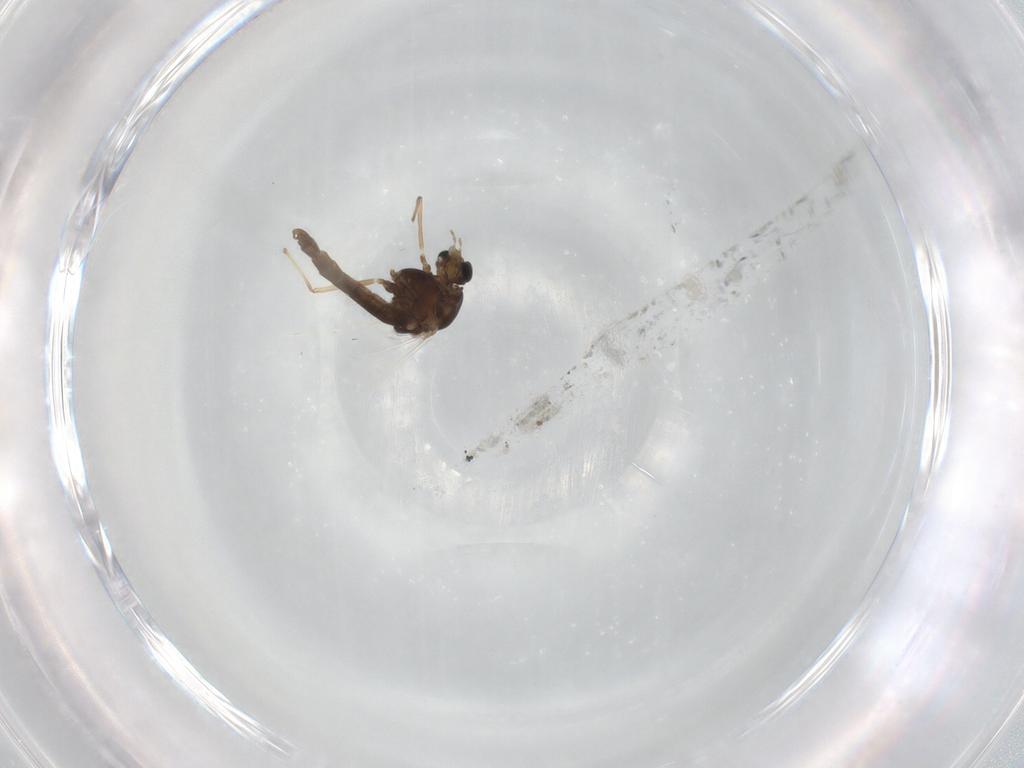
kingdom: Animalia
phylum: Arthropoda
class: Insecta
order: Diptera
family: Chironomidae
